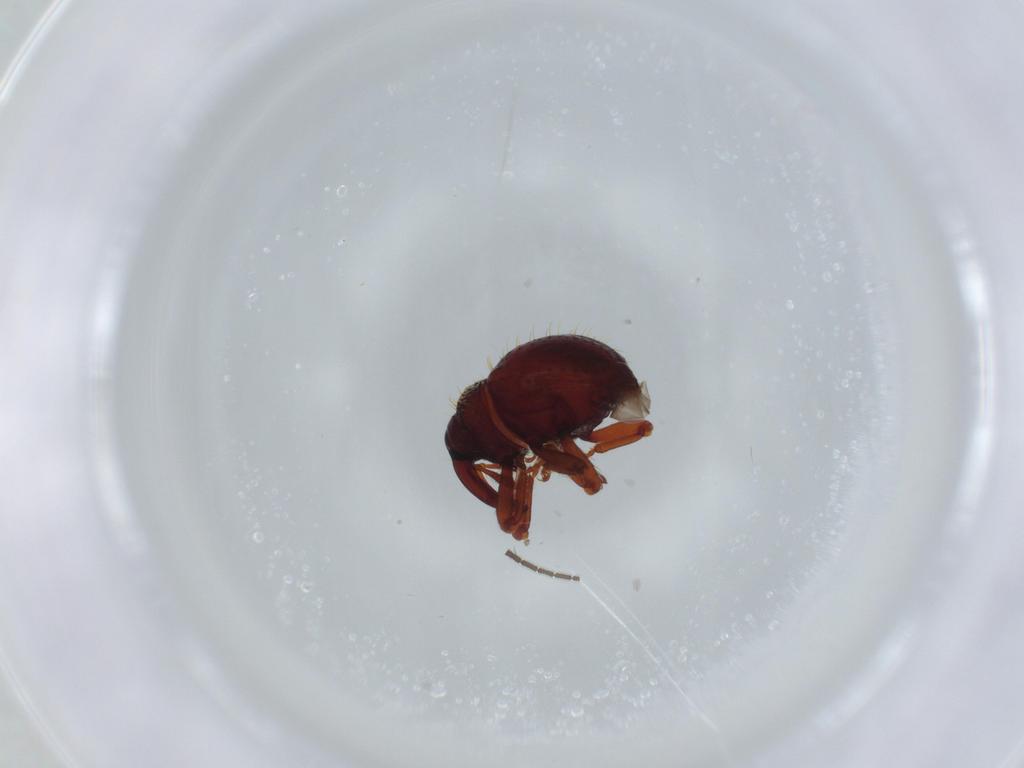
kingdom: Animalia
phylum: Arthropoda
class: Insecta
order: Coleoptera
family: Curculionidae
